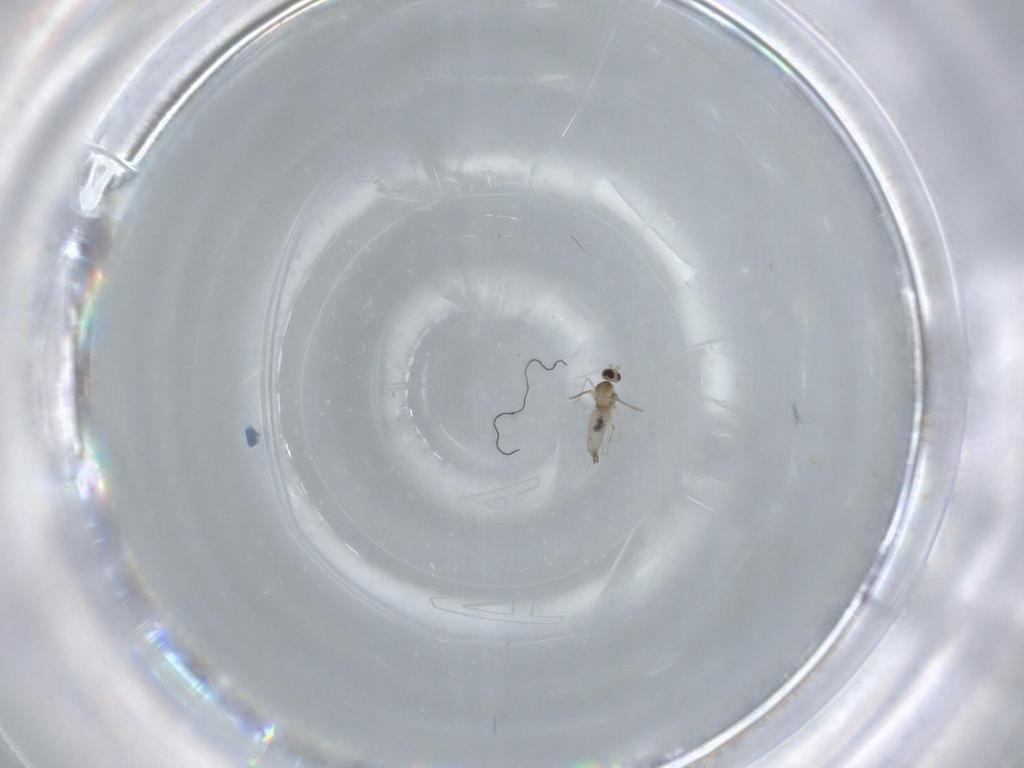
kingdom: Animalia
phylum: Arthropoda
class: Insecta
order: Diptera
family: Cecidomyiidae
